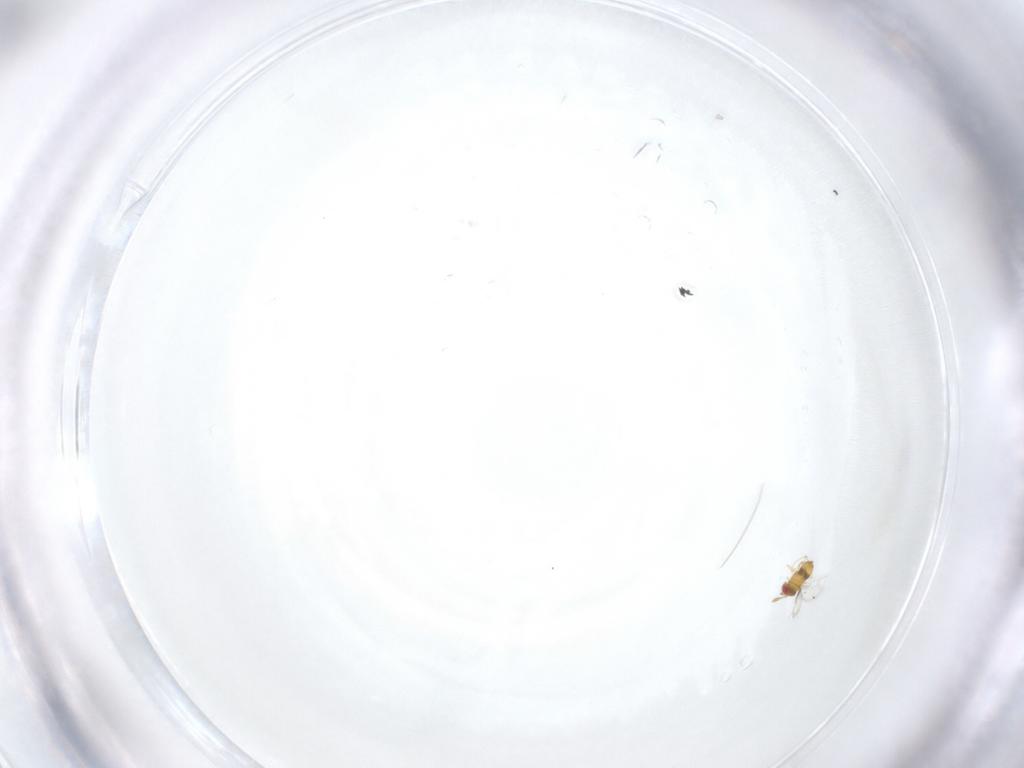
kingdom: Animalia
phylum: Arthropoda
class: Insecta
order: Hymenoptera
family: Trichogrammatidae
